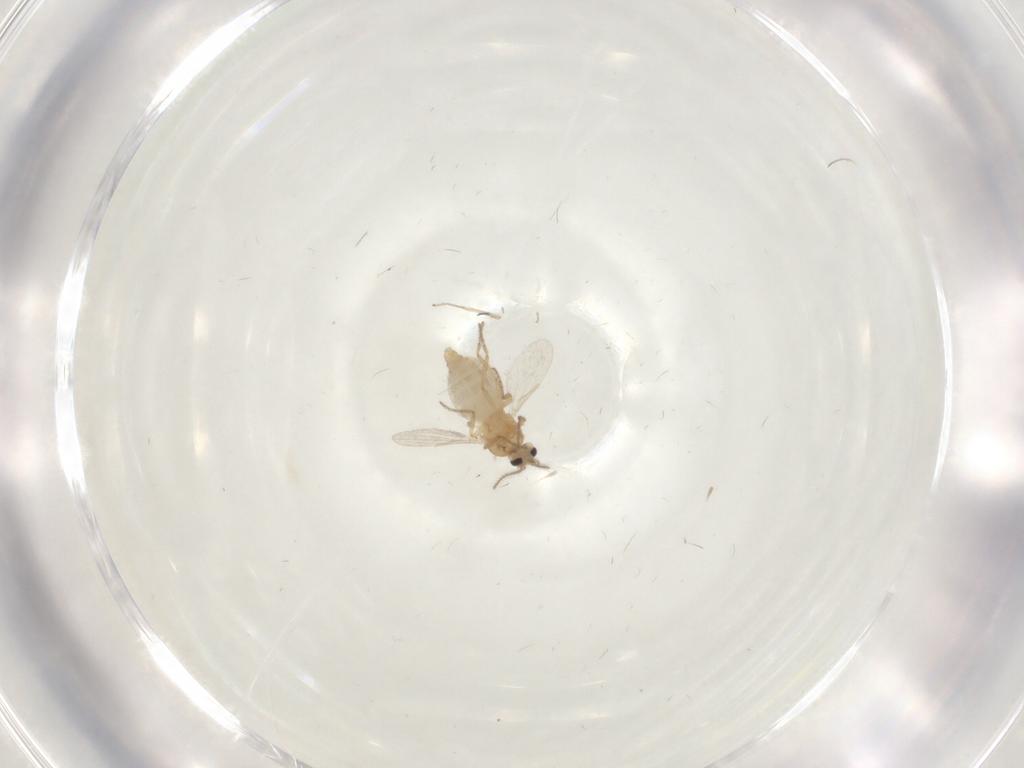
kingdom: Animalia
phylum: Arthropoda
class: Insecta
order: Diptera
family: Chironomidae
